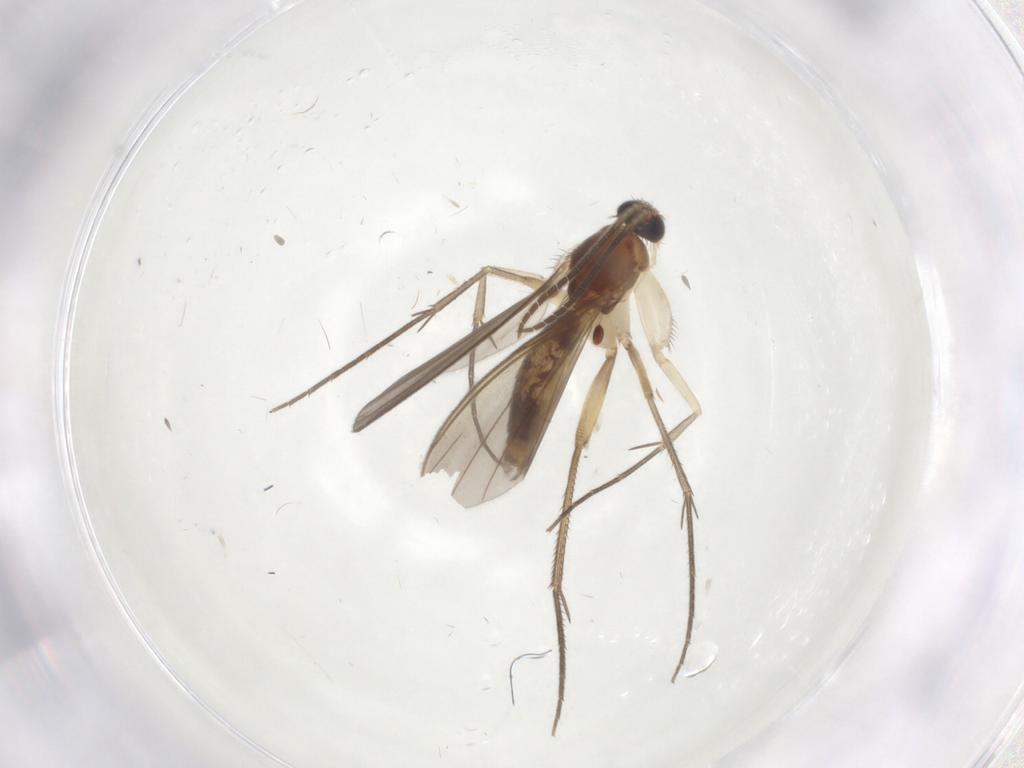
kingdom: Animalia
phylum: Arthropoda
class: Insecta
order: Diptera
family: Mycetophilidae
